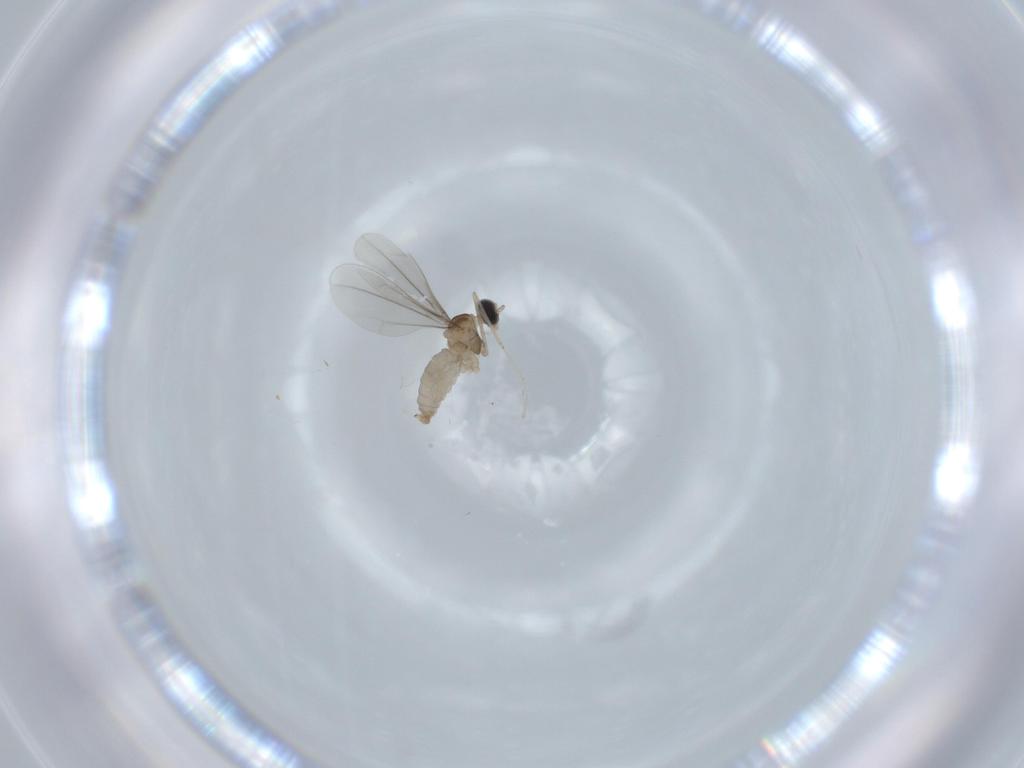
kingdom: Animalia
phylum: Arthropoda
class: Insecta
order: Diptera
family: Cecidomyiidae
